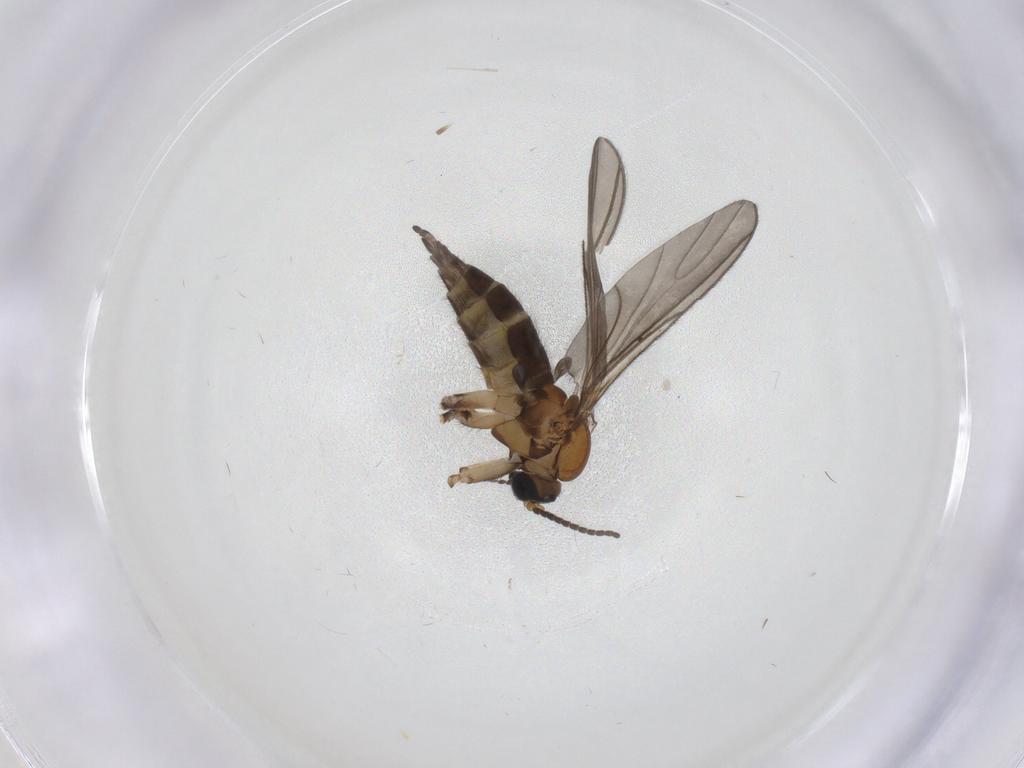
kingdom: Animalia
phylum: Arthropoda
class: Insecta
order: Diptera
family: Sciaridae
